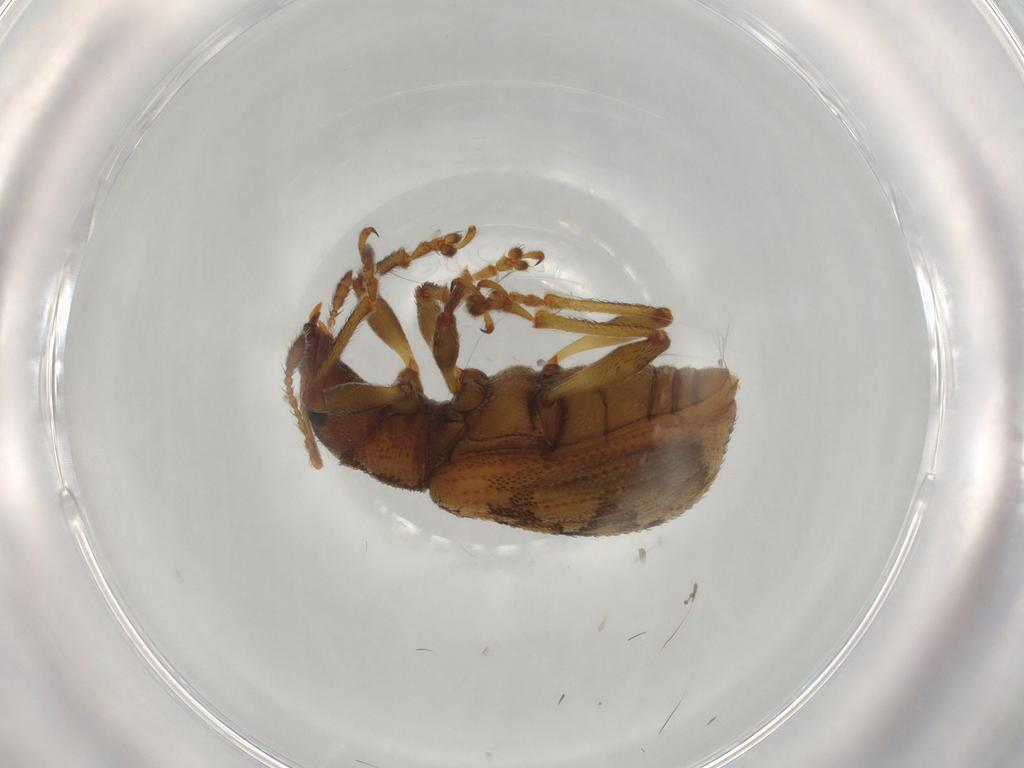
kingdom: Animalia
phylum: Arthropoda
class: Insecta
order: Coleoptera
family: Curculionidae
